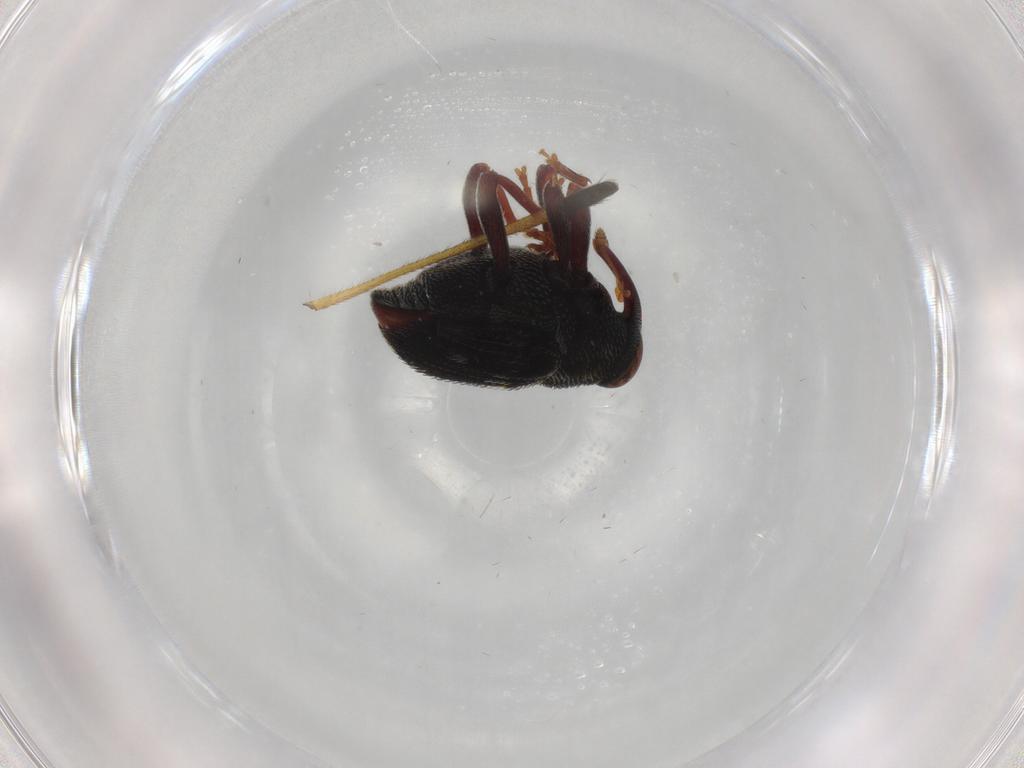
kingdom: Animalia
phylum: Arthropoda
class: Insecta
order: Coleoptera
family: Curculionidae
